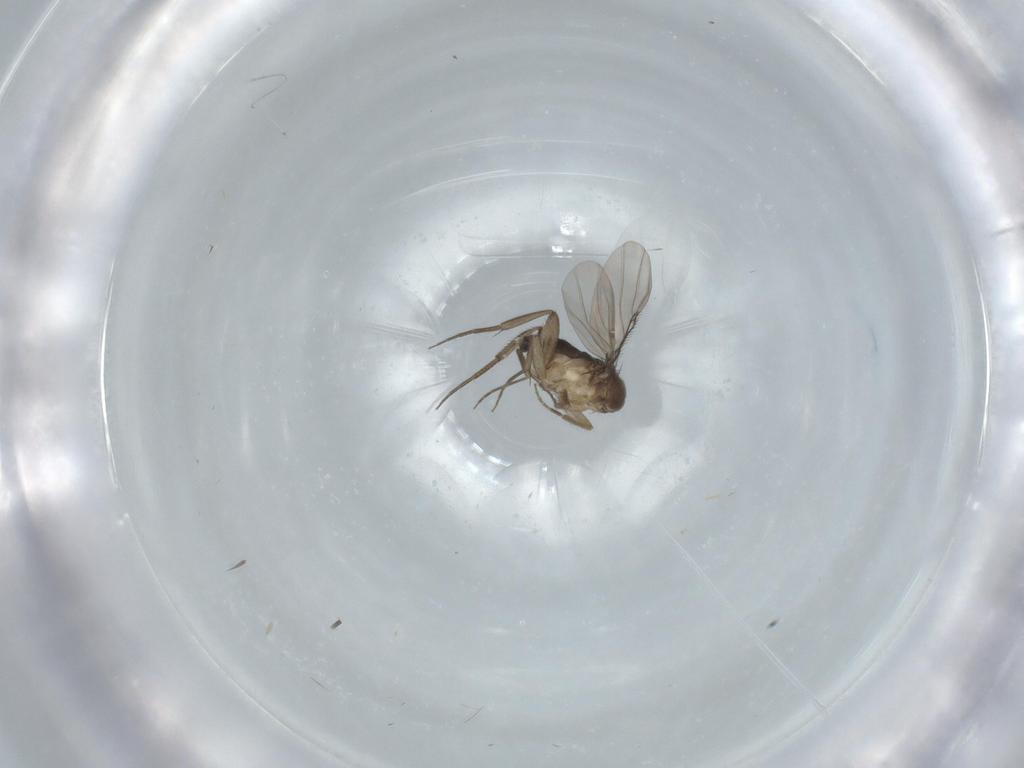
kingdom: Animalia
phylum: Arthropoda
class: Insecta
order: Diptera
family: Phoridae
